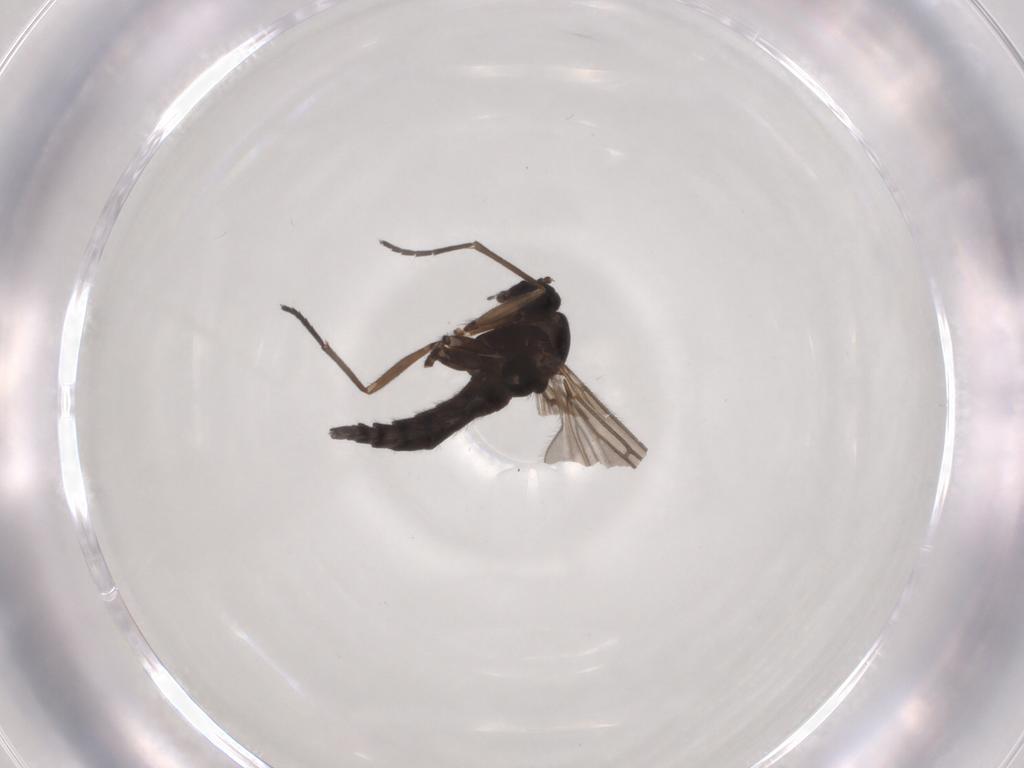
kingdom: Animalia
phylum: Arthropoda
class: Insecta
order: Diptera
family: Sciaridae
